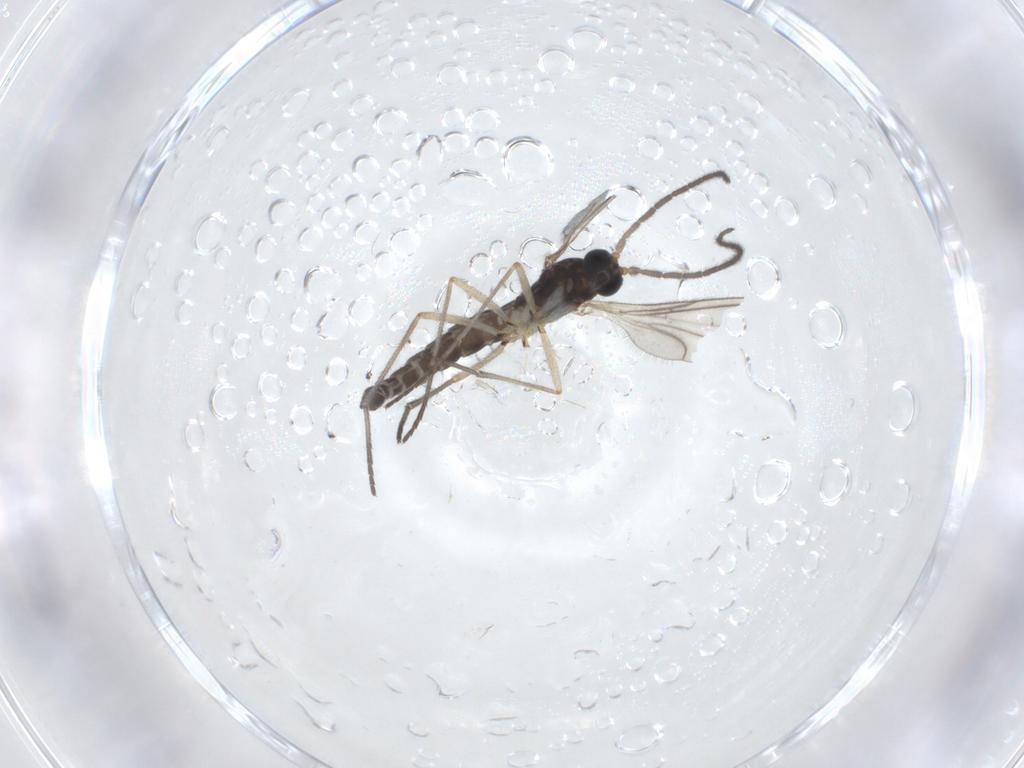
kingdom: Animalia
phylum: Arthropoda
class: Insecta
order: Diptera
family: Sciaridae
